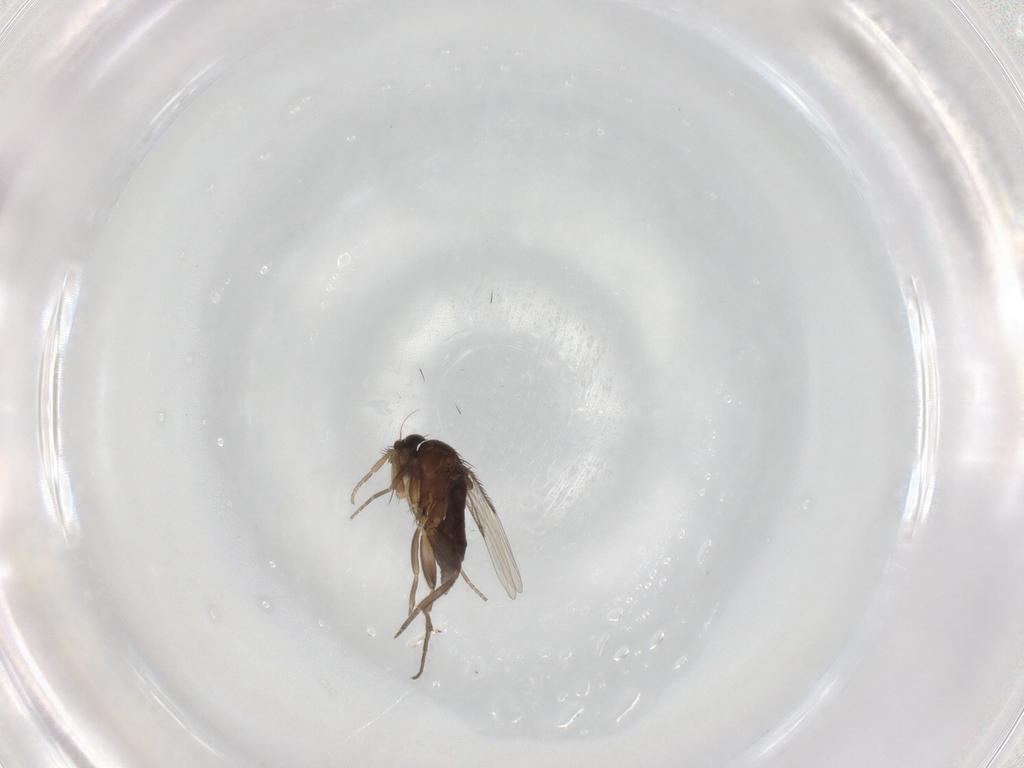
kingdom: Animalia
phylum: Arthropoda
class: Insecta
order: Diptera
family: Phoridae
